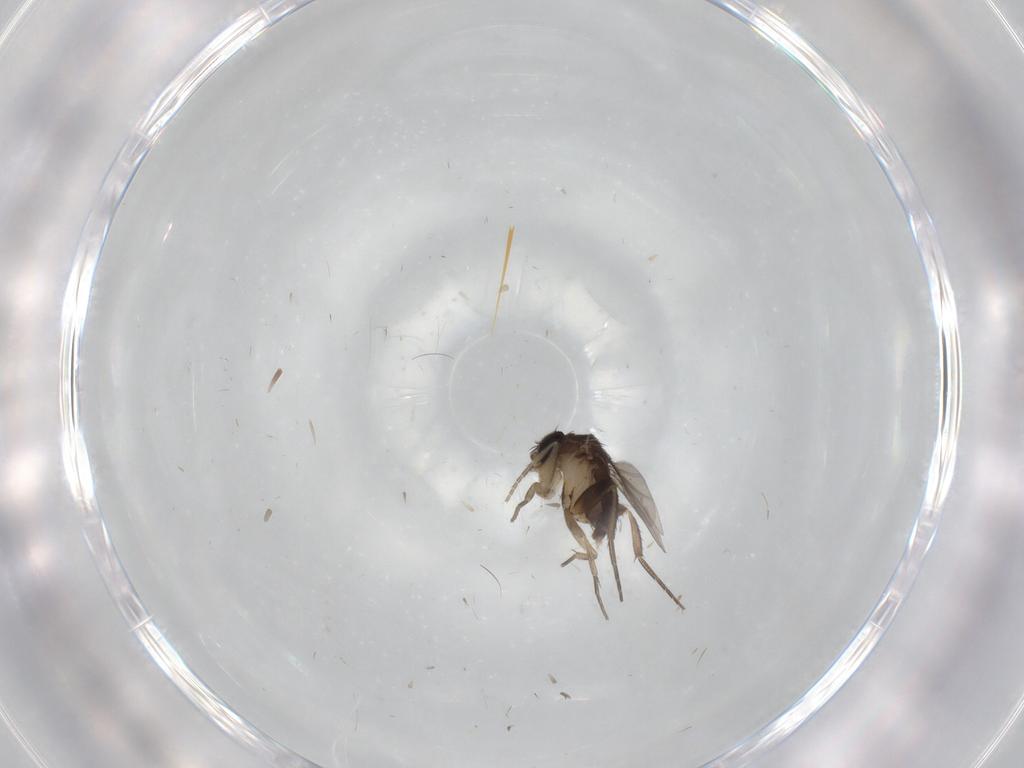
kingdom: Animalia
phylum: Arthropoda
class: Insecta
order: Diptera
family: Phoridae
